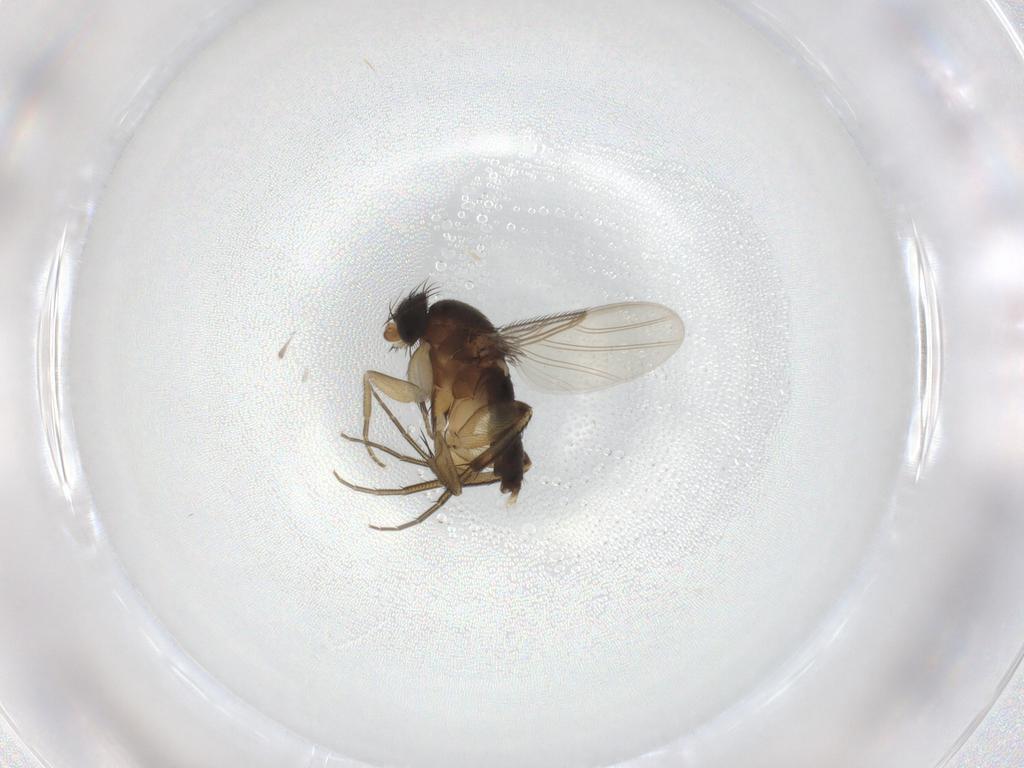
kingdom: Animalia
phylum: Arthropoda
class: Insecta
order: Diptera
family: Phoridae
